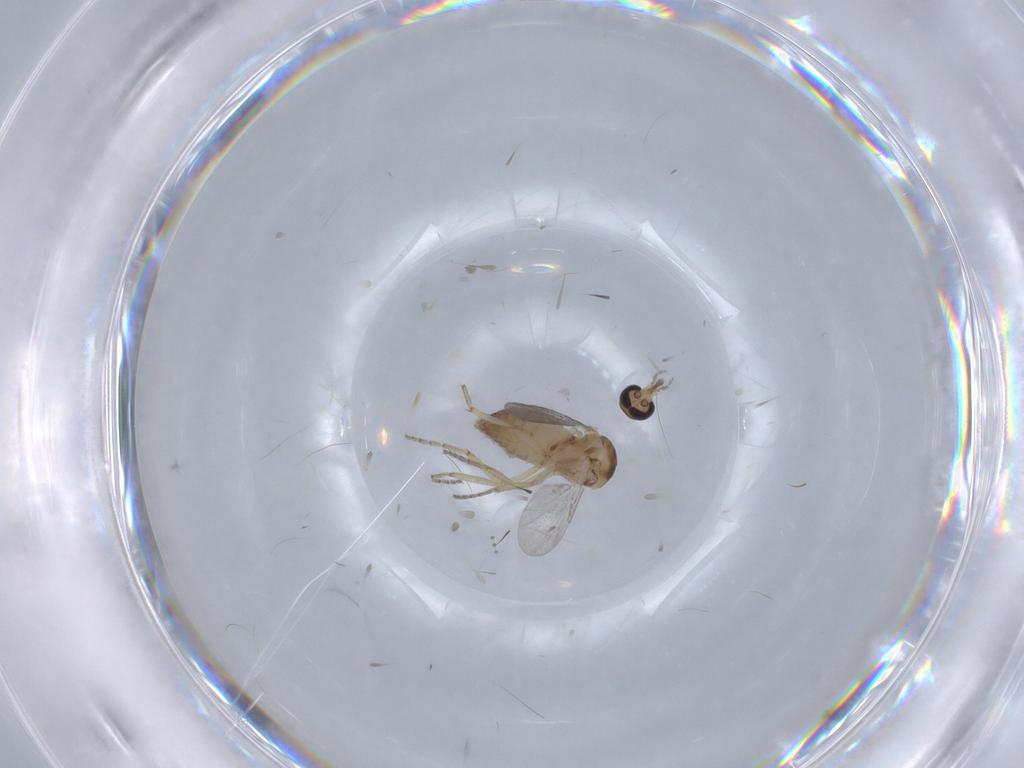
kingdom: Animalia
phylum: Arthropoda
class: Insecta
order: Diptera
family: Ceratopogonidae
